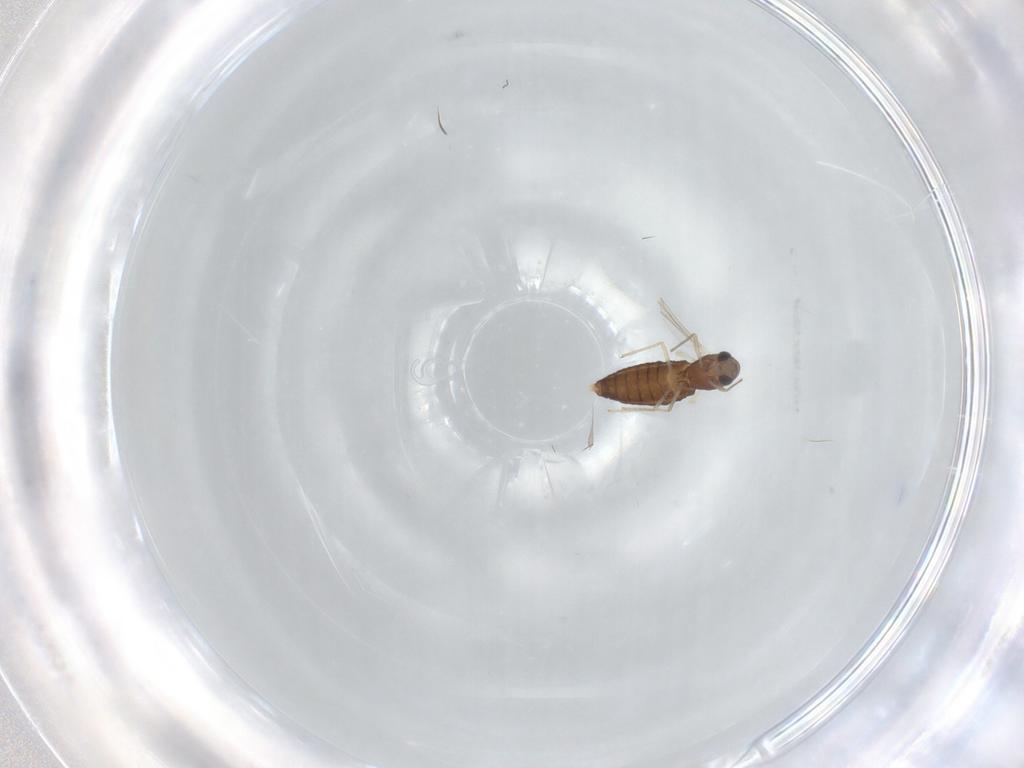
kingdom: Animalia
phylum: Arthropoda
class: Insecta
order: Diptera
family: Chironomidae
